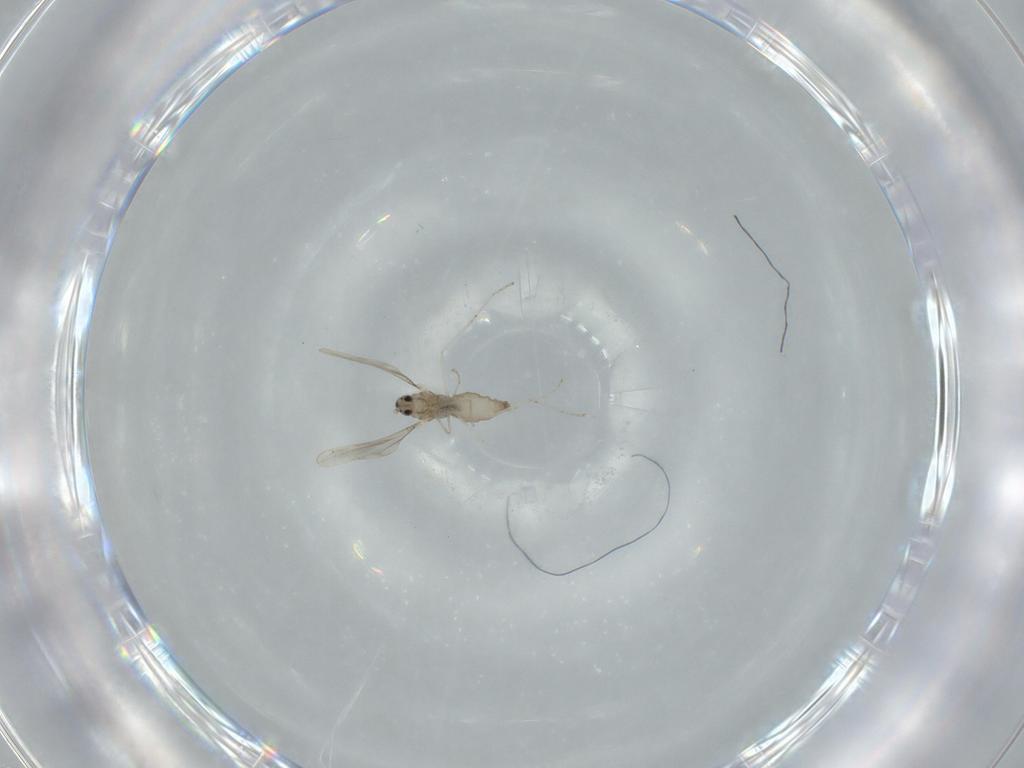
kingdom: Animalia
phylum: Arthropoda
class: Insecta
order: Diptera
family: Cecidomyiidae
